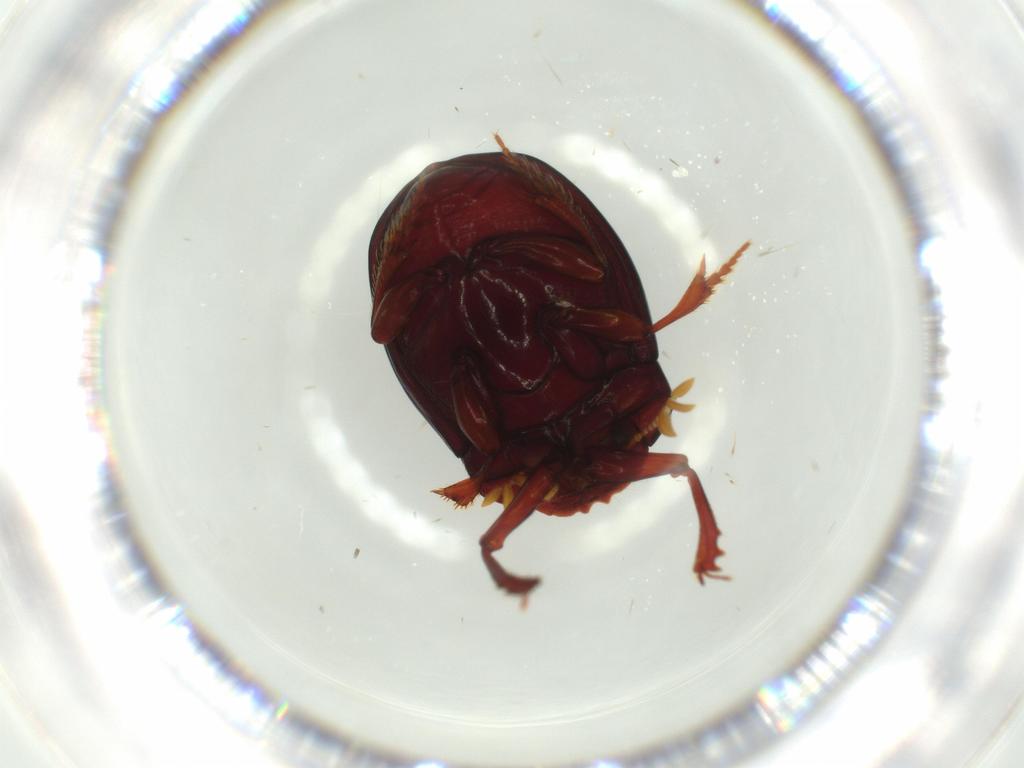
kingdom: Animalia
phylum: Arthropoda
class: Insecta
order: Coleoptera
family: Scarabaeidae
